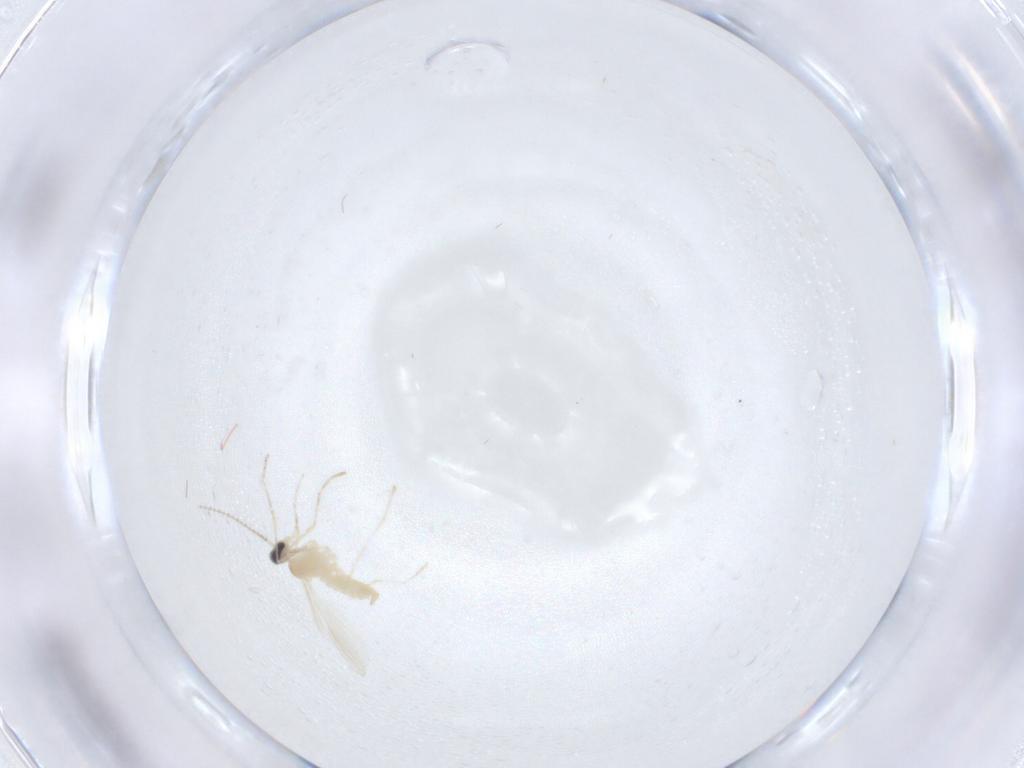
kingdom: Animalia
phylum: Arthropoda
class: Insecta
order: Diptera
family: Cecidomyiidae
